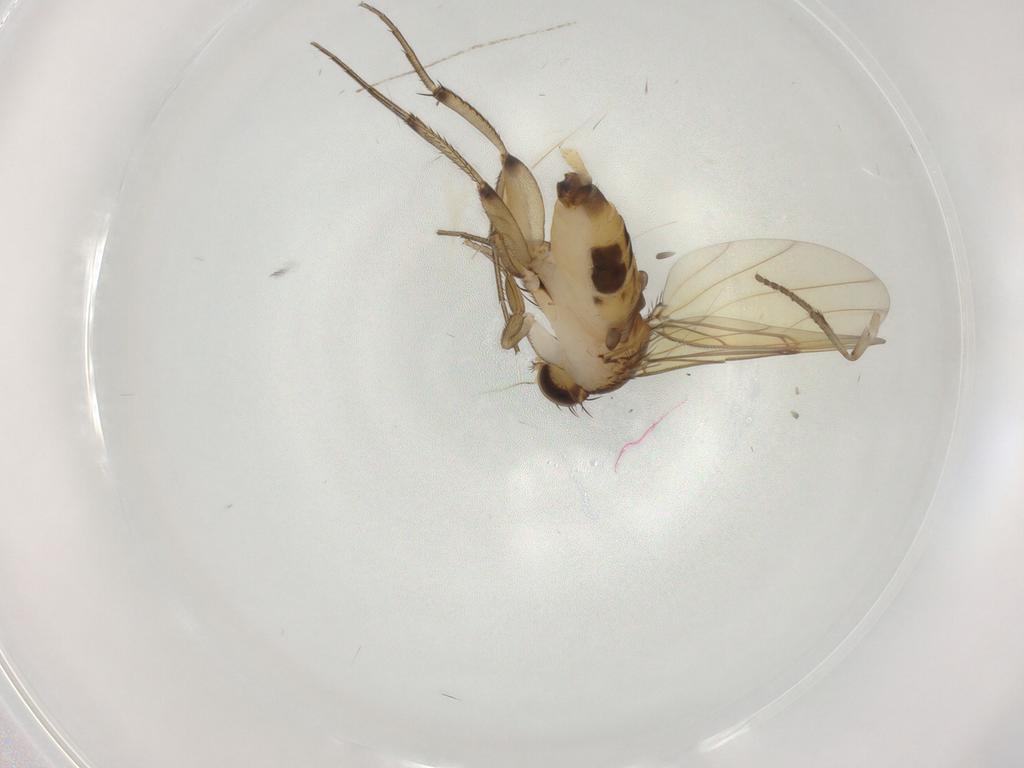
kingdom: Animalia
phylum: Arthropoda
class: Insecta
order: Diptera
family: Phoridae
